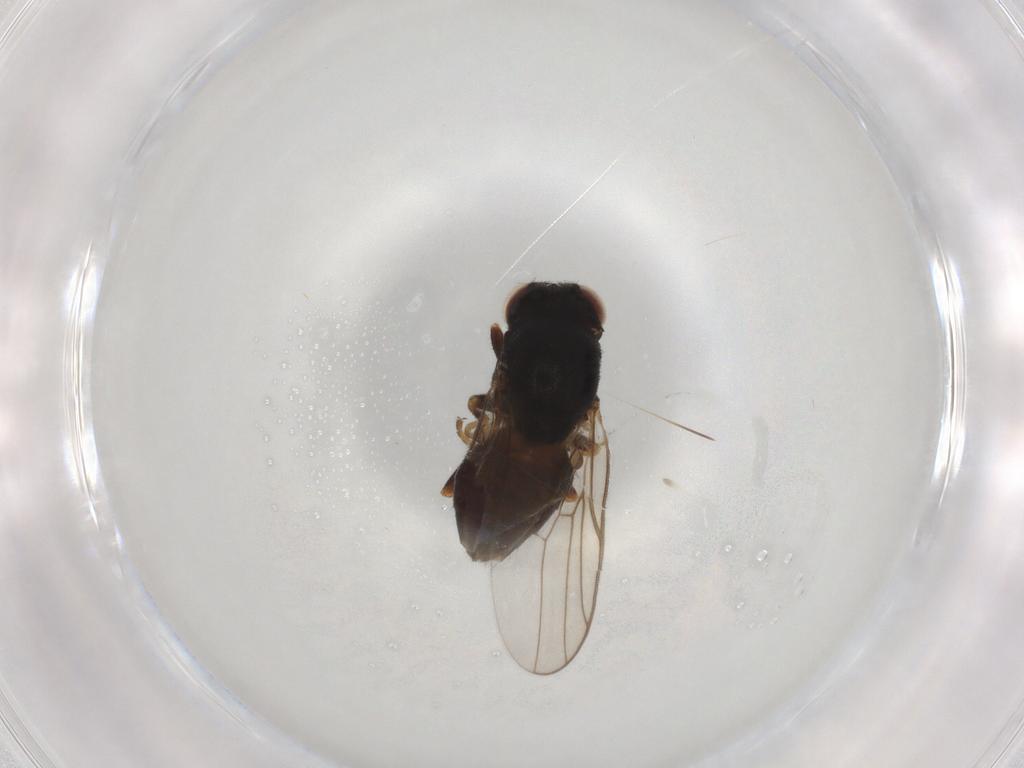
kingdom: Animalia
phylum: Arthropoda
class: Insecta
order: Diptera
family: Chloropidae
